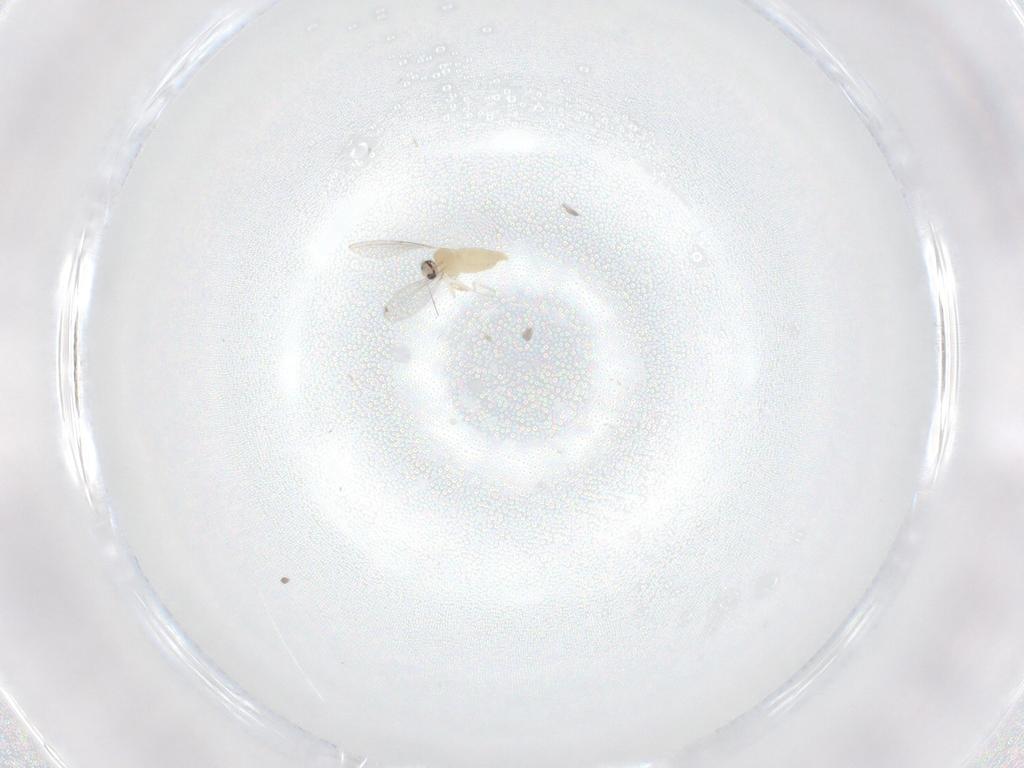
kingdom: Animalia
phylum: Arthropoda
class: Insecta
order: Diptera
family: Cecidomyiidae
